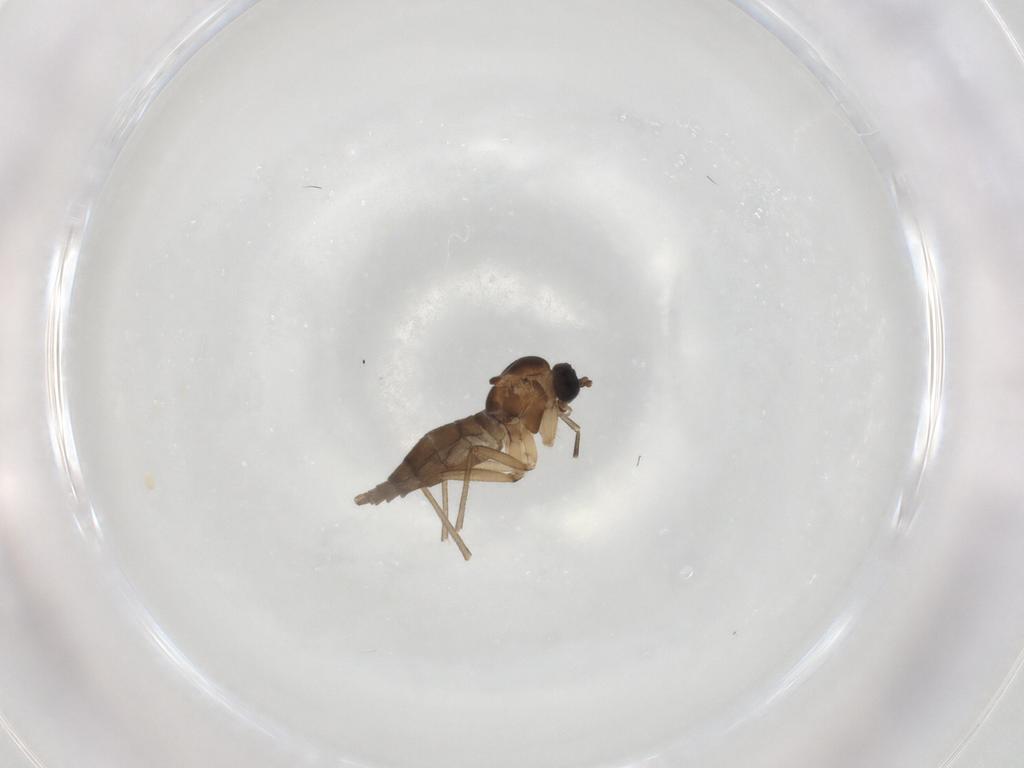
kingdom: Animalia
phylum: Arthropoda
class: Insecta
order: Diptera
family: Sciaridae
